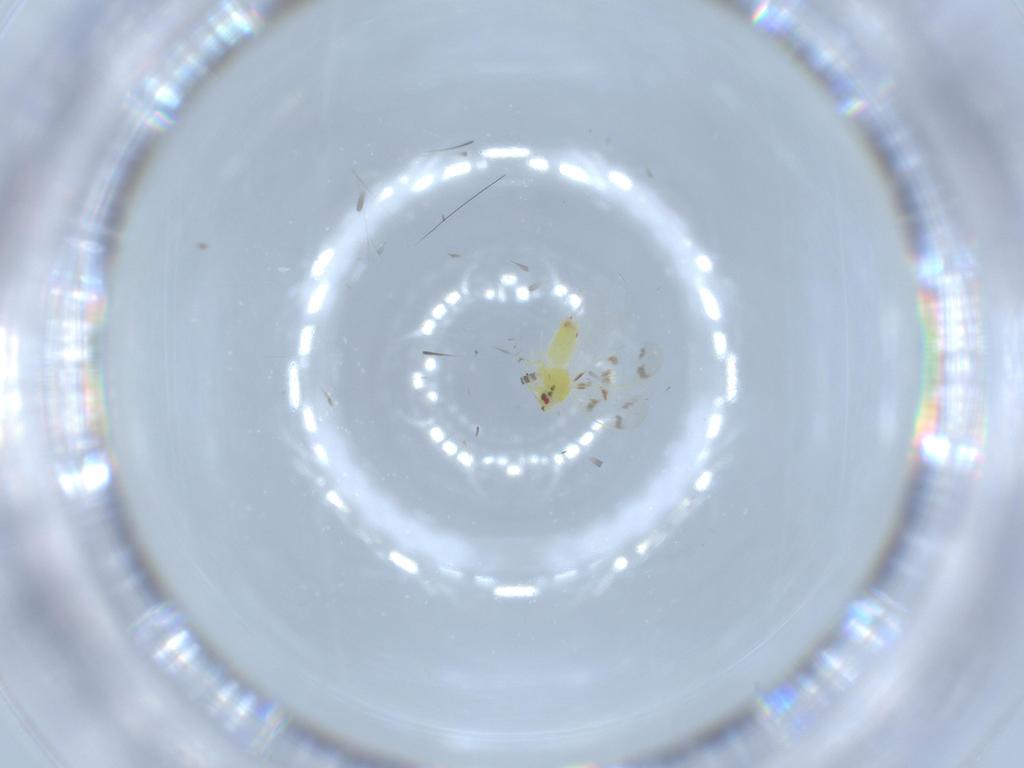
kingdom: Animalia
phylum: Arthropoda
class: Insecta
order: Hemiptera
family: Aleyrodidae
